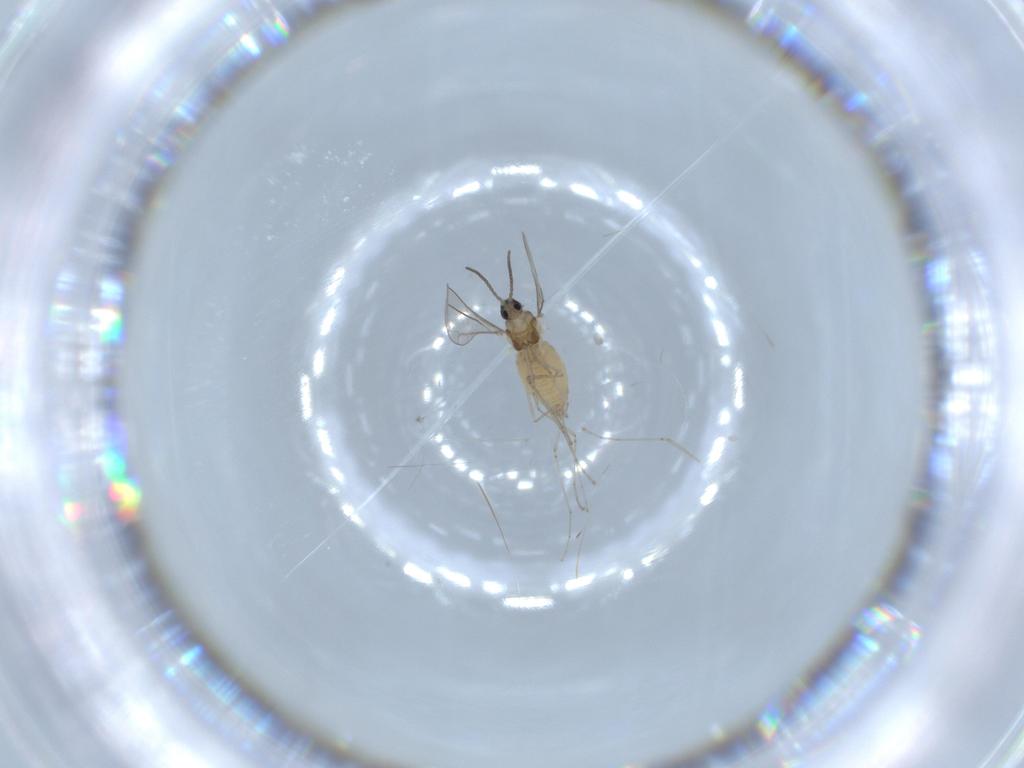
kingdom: Animalia
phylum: Arthropoda
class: Insecta
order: Diptera
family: Cecidomyiidae
